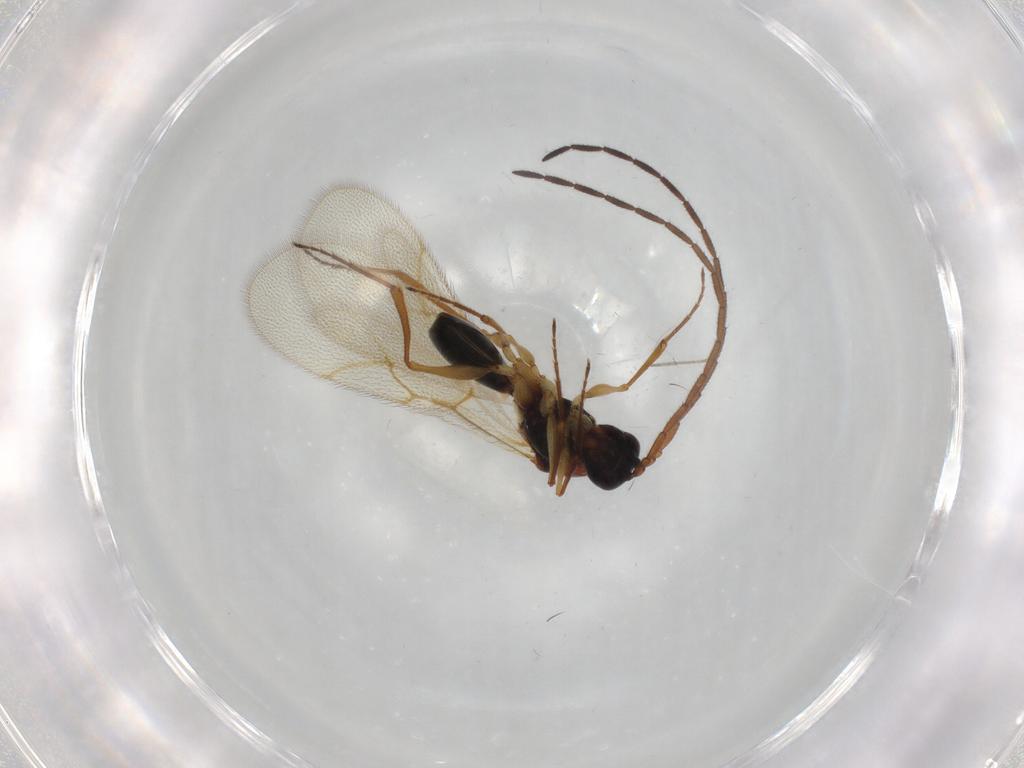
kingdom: Animalia
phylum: Arthropoda
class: Insecta
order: Hymenoptera
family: Figitidae
